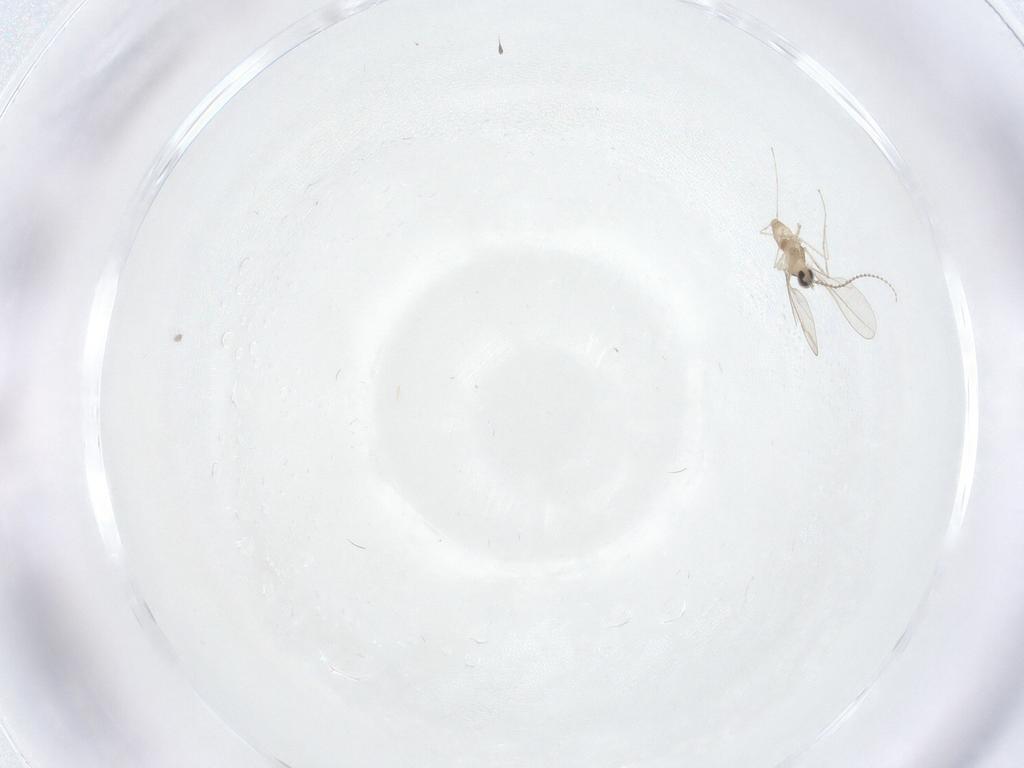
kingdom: Animalia
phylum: Arthropoda
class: Insecta
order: Diptera
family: Cecidomyiidae
